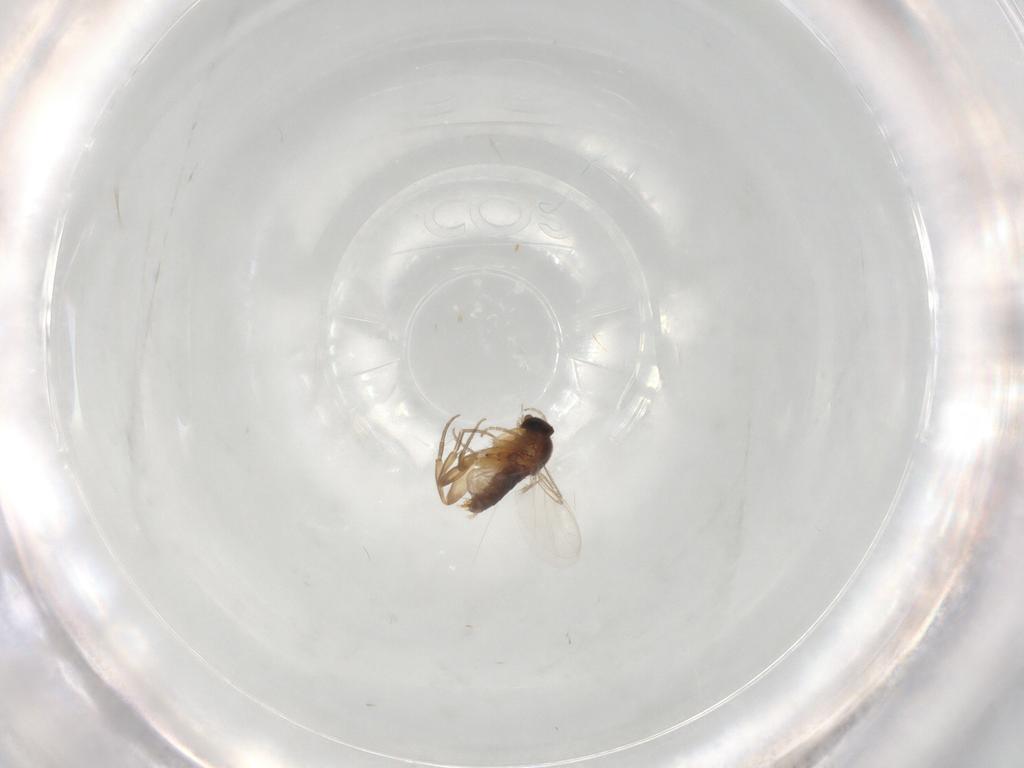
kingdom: Animalia
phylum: Arthropoda
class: Insecta
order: Diptera
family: Phoridae
